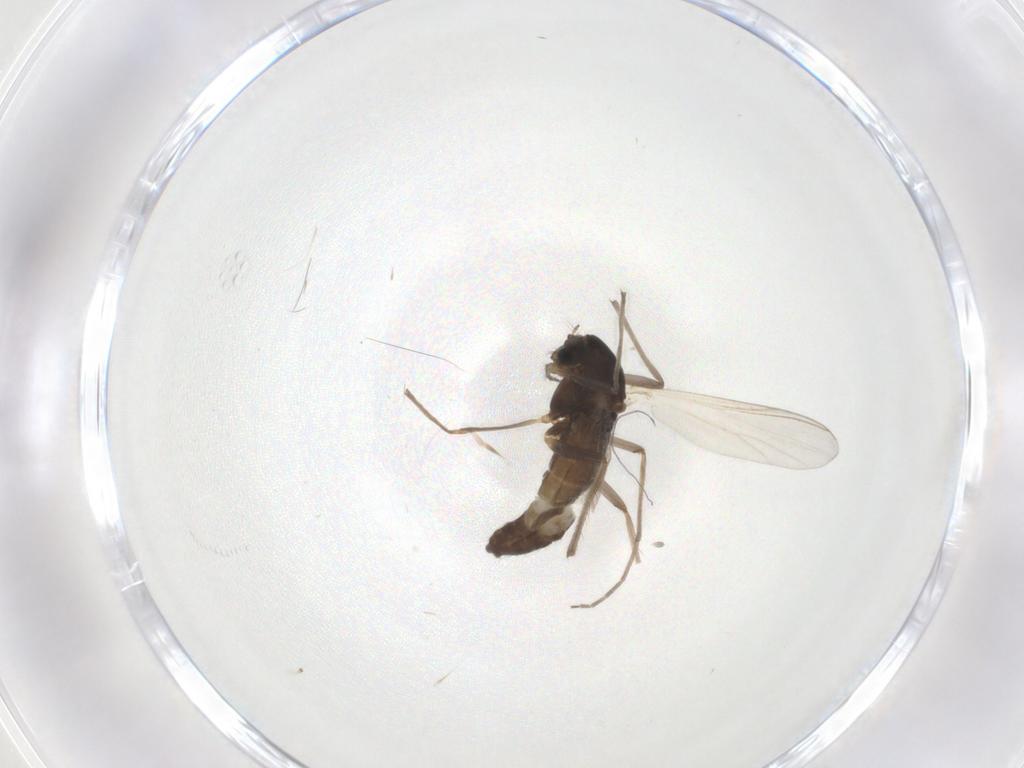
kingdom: Animalia
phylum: Arthropoda
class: Insecta
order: Diptera
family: Chironomidae
